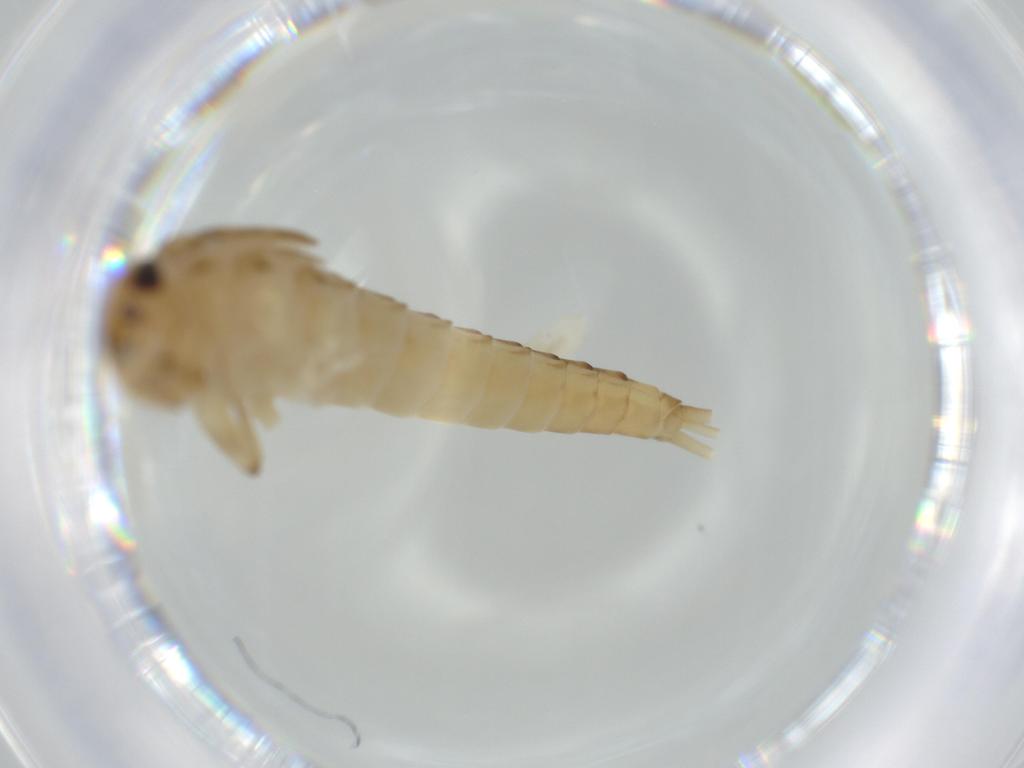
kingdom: Animalia
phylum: Arthropoda
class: Insecta
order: Ephemeroptera
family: Baetidae
